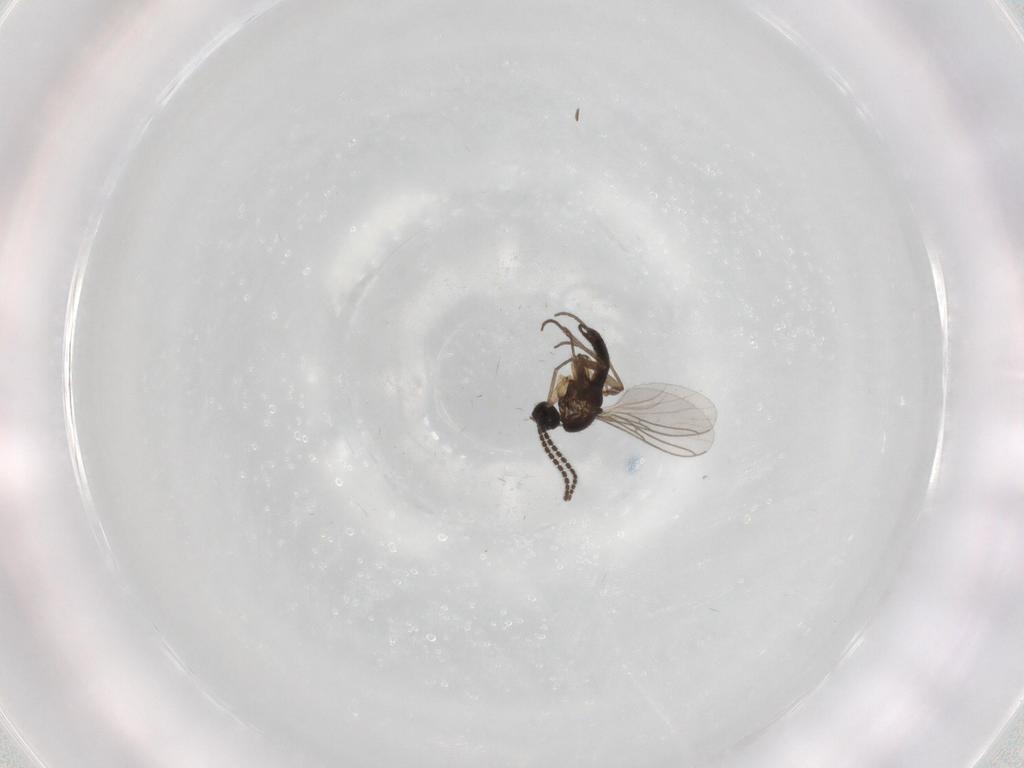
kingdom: Animalia
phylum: Arthropoda
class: Insecta
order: Diptera
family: Sciaridae
